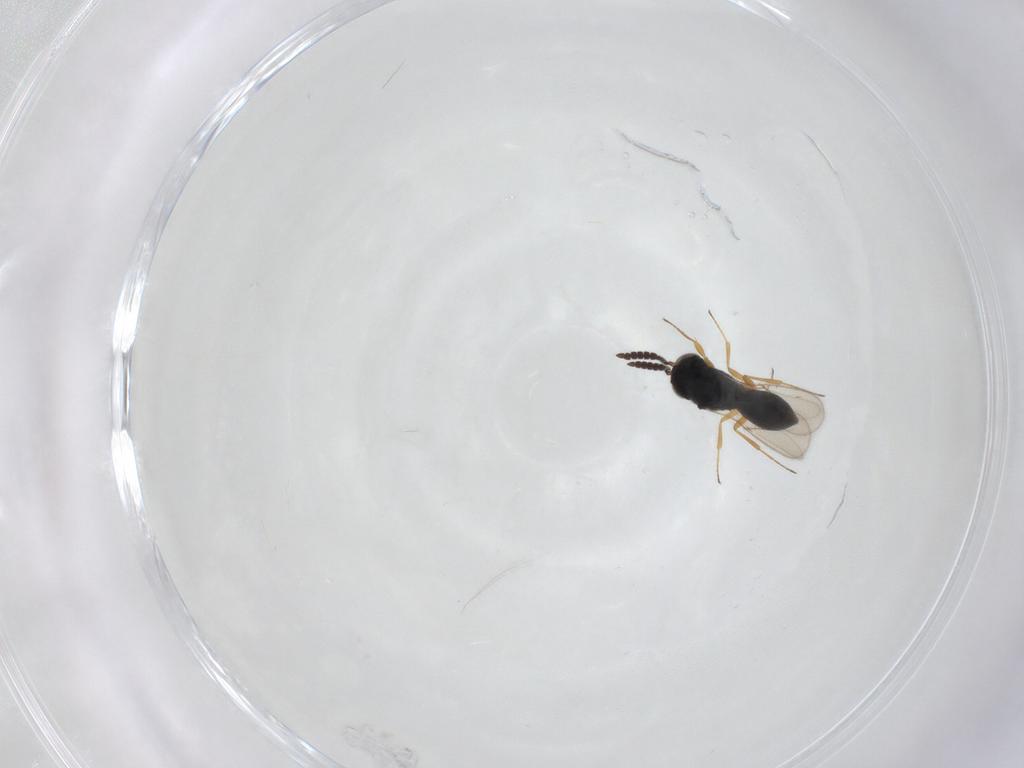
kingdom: Animalia
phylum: Arthropoda
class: Insecta
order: Hymenoptera
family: Scelionidae
